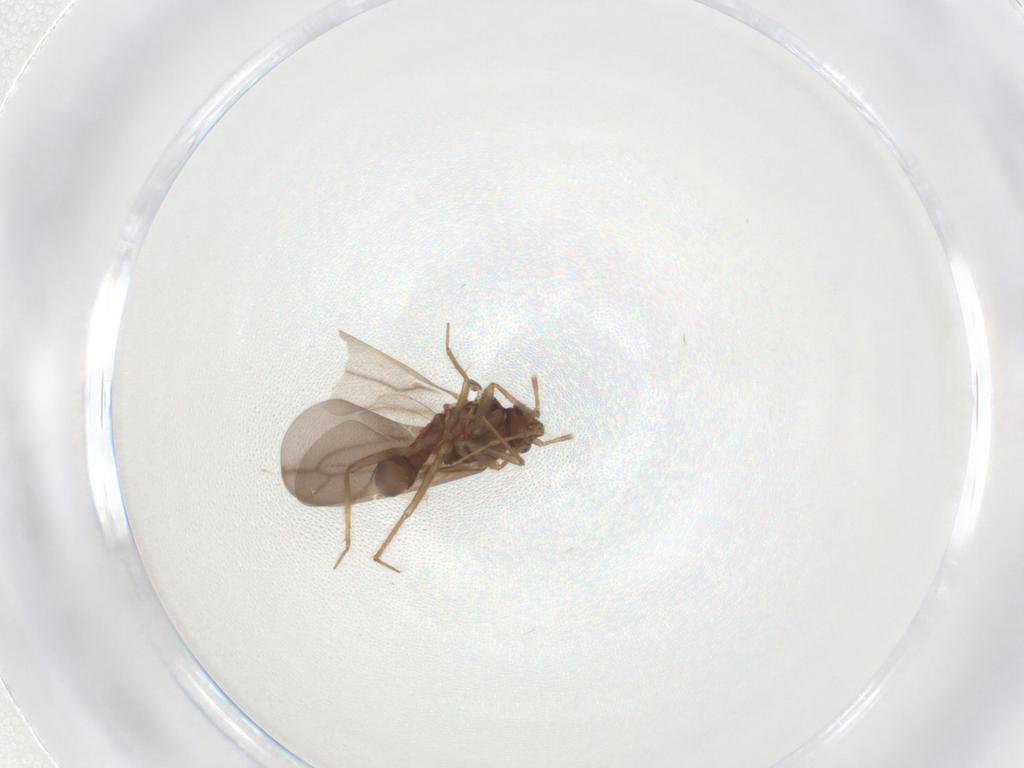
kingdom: Animalia
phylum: Arthropoda
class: Insecta
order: Hemiptera
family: Ceratocombidae
